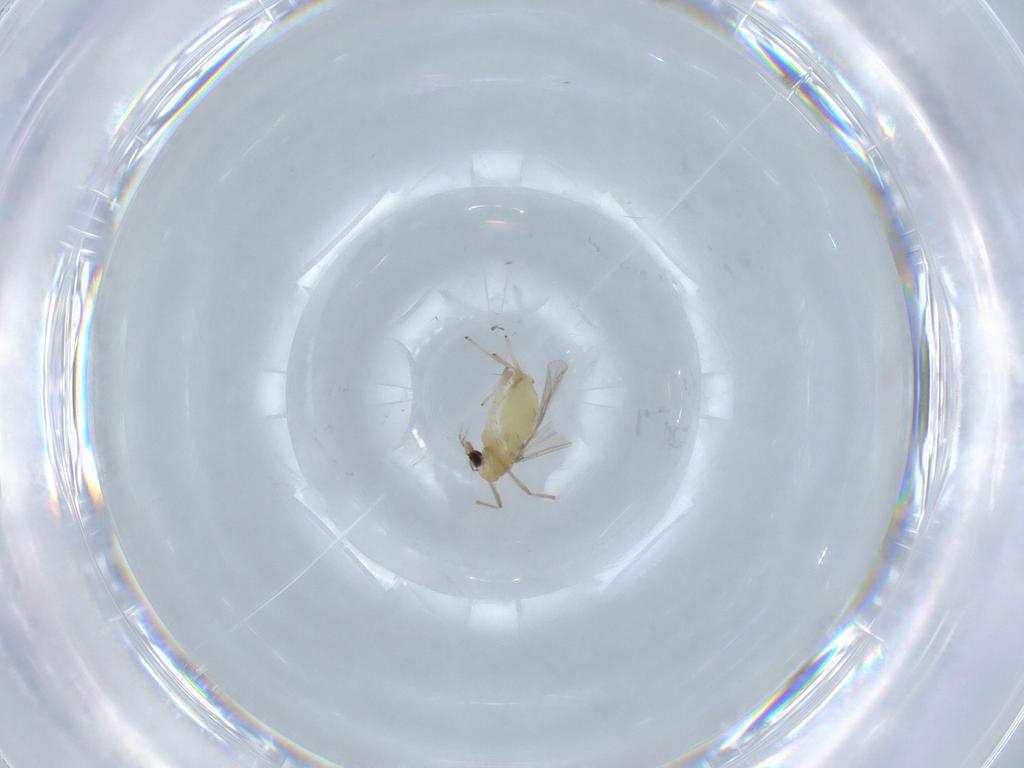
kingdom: Animalia
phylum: Arthropoda
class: Insecta
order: Diptera
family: Chironomidae
